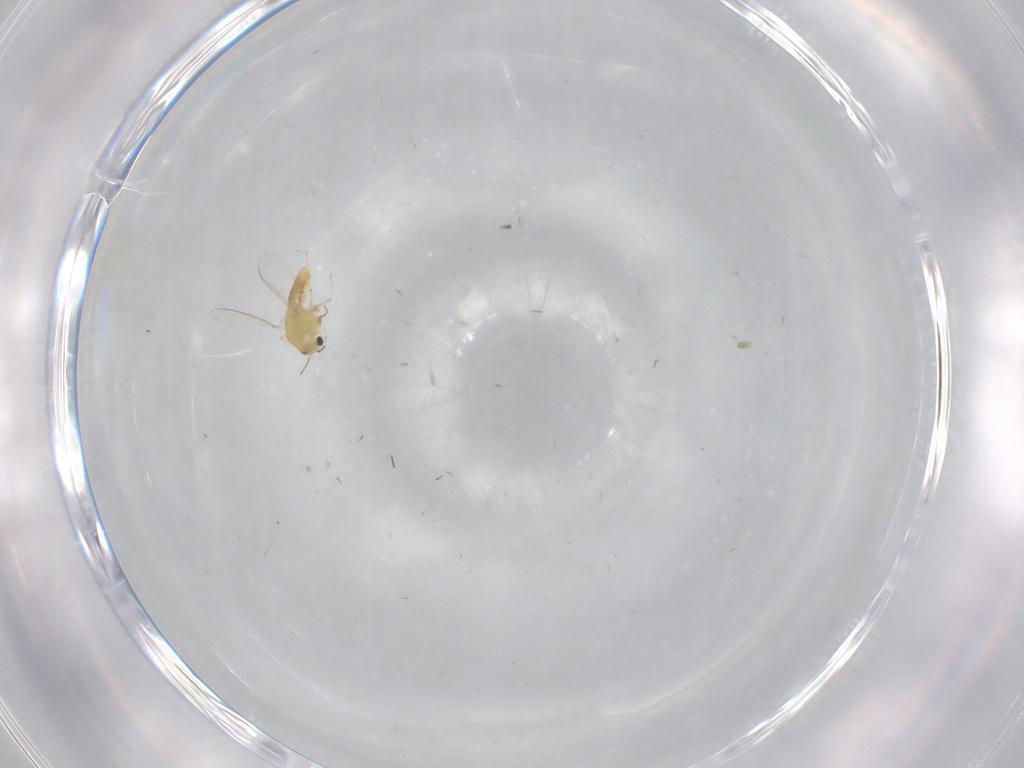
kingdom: Animalia
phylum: Arthropoda
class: Insecta
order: Diptera
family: Chironomidae
